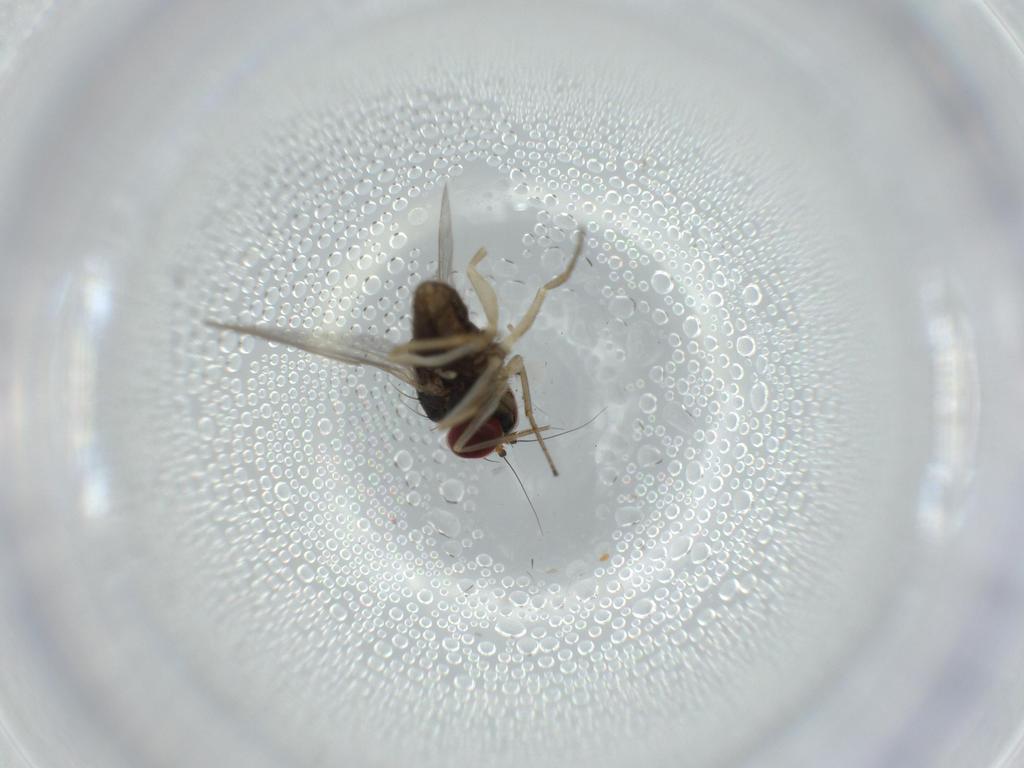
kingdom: Animalia
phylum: Arthropoda
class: Insecta
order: Diptera
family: Dolichopodidae
